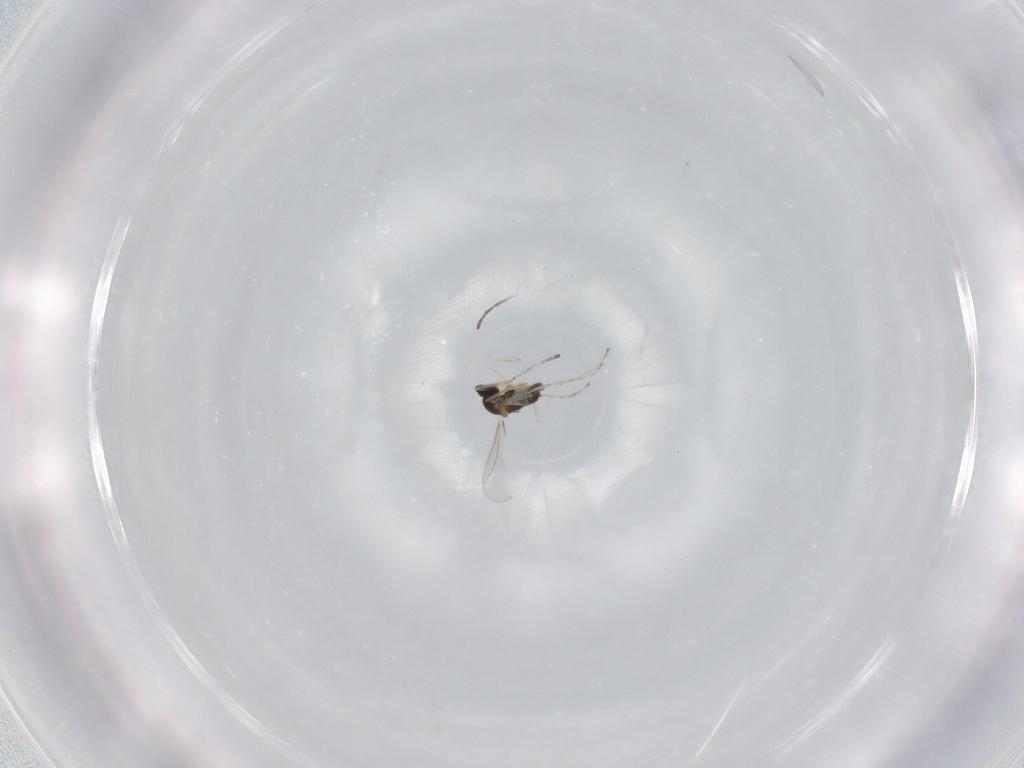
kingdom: Animalia
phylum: Arthropoda
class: Insecta
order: Diptera
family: Cecidomyiidae
